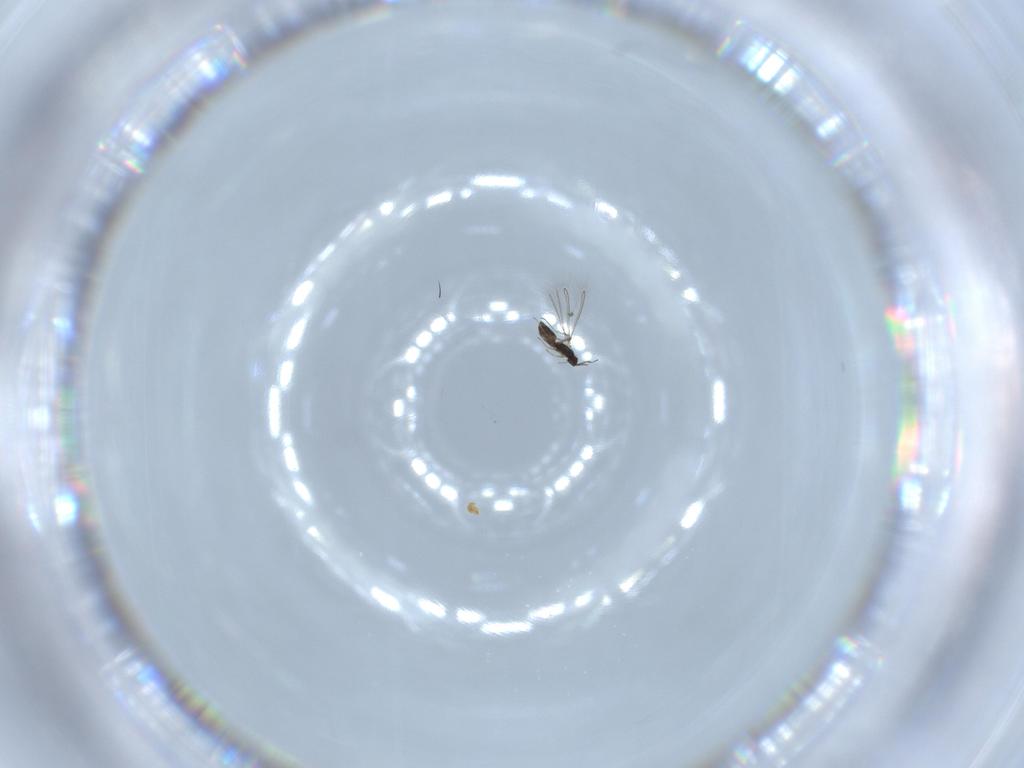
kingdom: Animalia
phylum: Arthropoda
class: Insecta
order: Hymenoptera
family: Mymaridae
